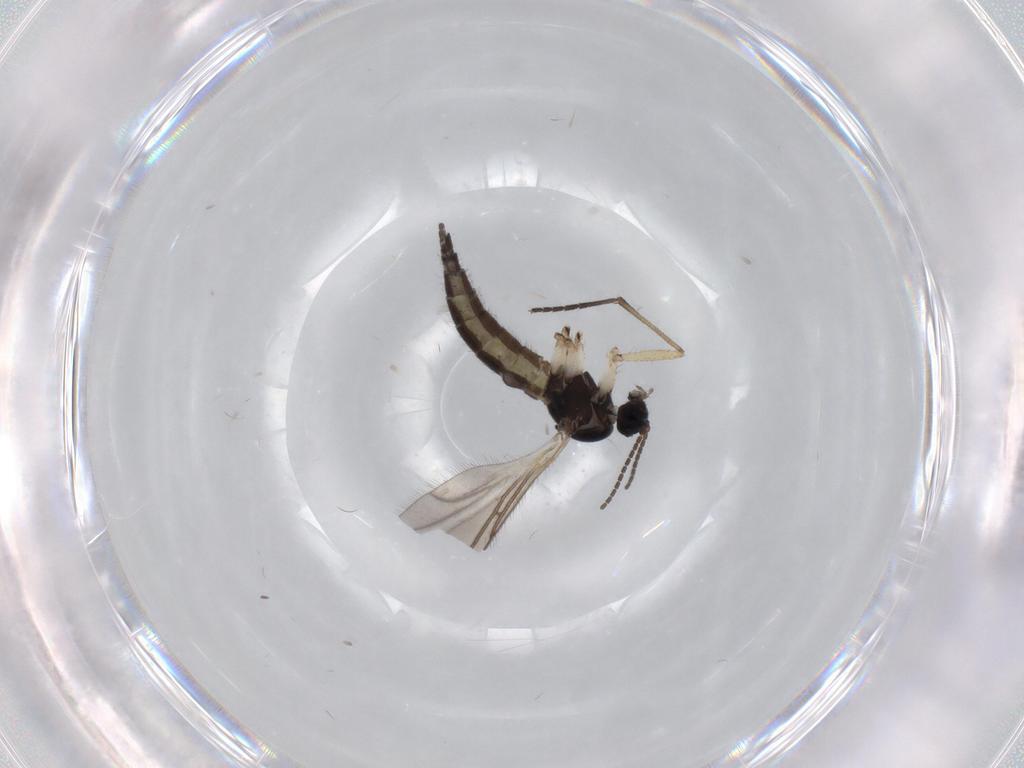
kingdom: Animalia
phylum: Arthropoda
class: Insecta
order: Diptera
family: Sciaridae
